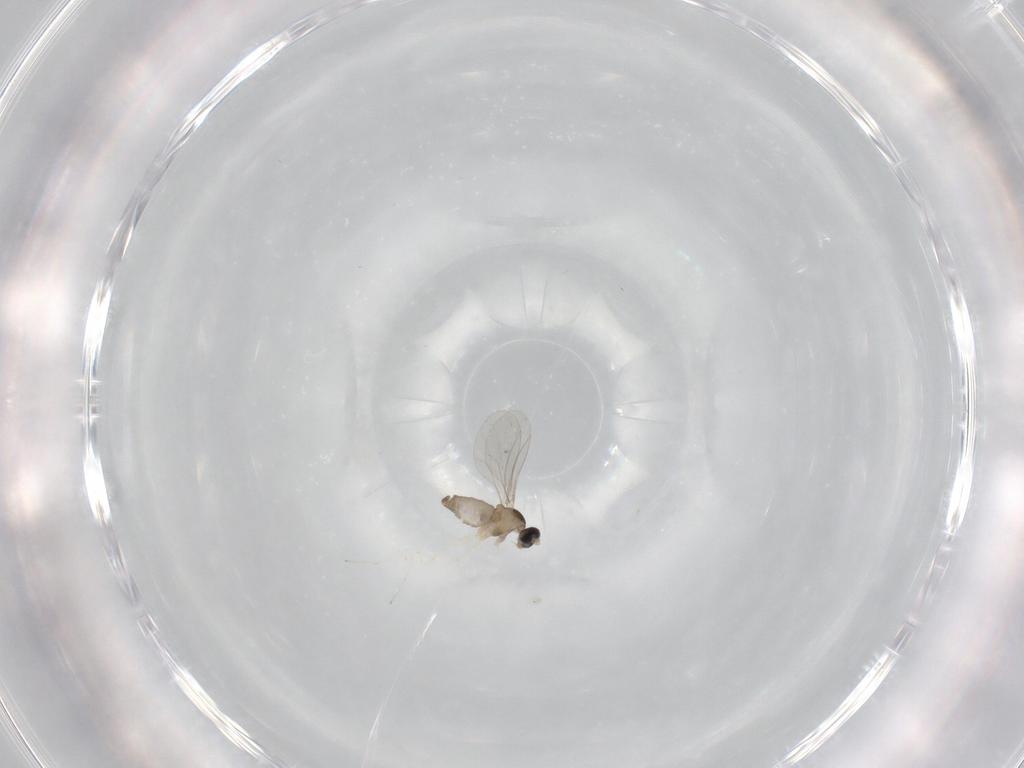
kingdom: Animalia
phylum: Arthropoda
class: Insecta
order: Diptera
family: Cecidomyiidae
